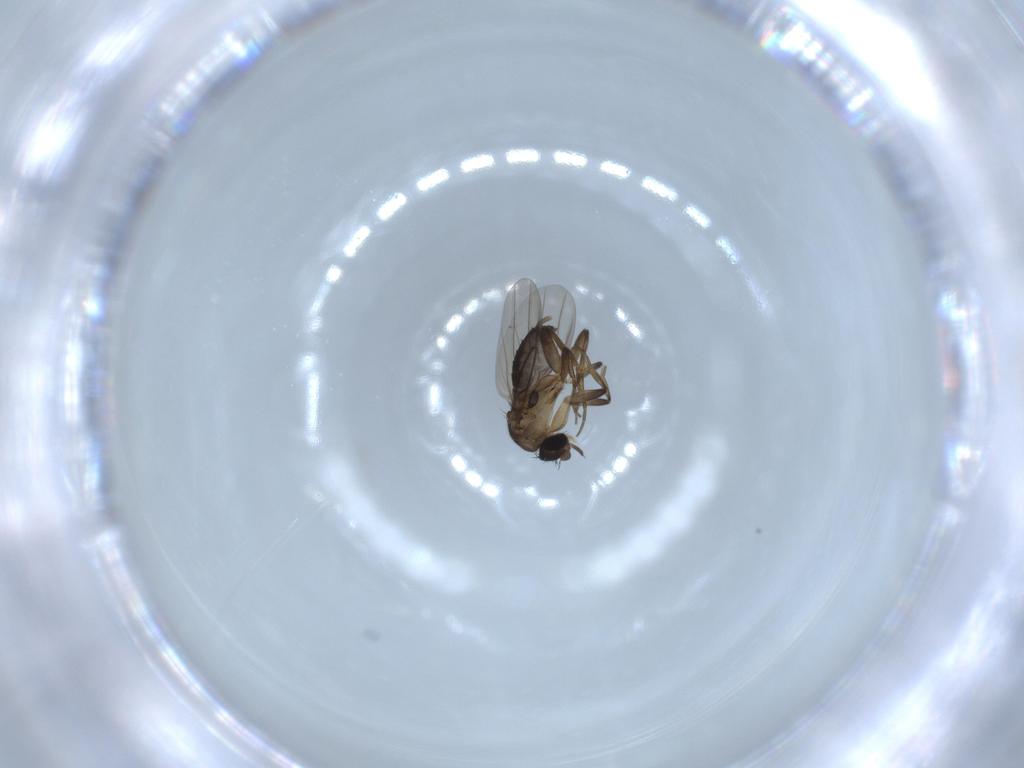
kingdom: Animalia
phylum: Arthropoda
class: Insecta
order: Diptera
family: Phoridae
